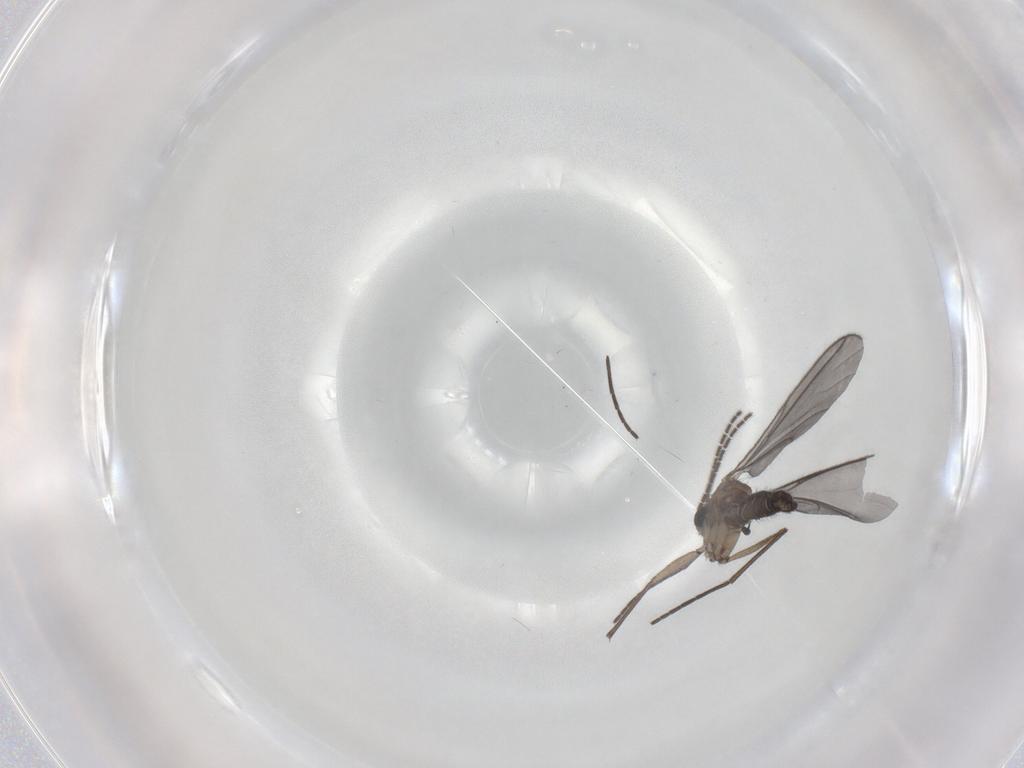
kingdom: Animalia
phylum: Arthropoda
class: Insecta
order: Diptera
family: Sciaridae
